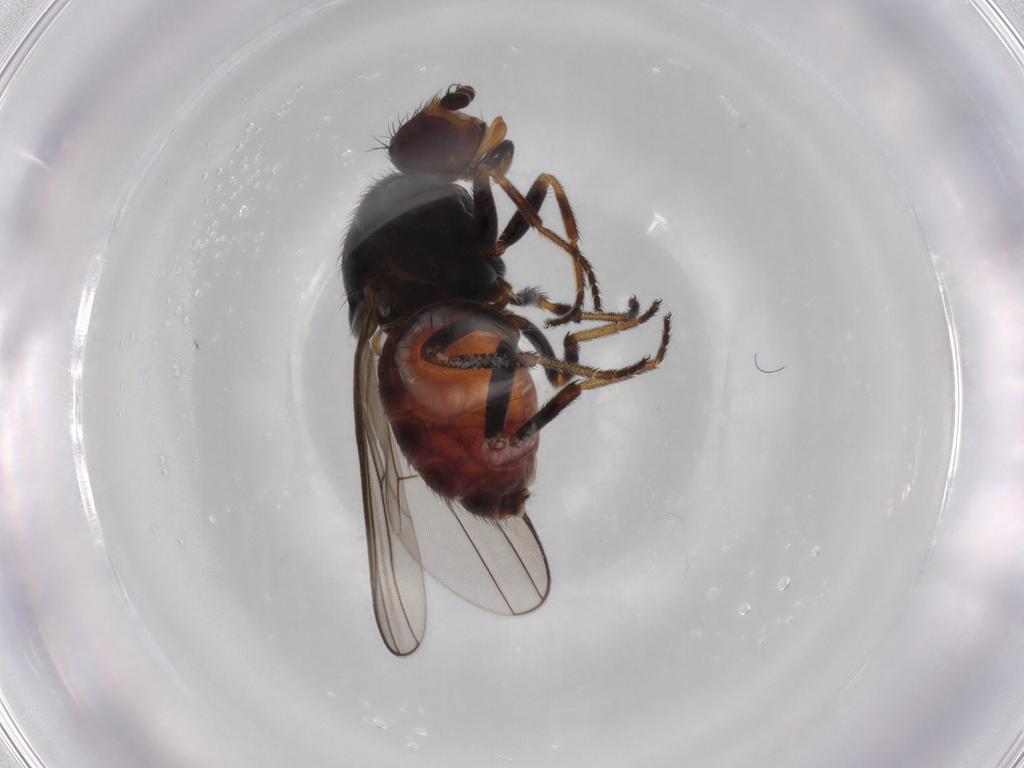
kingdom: Animalia
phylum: Arthropoda
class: Insecta
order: Diptera
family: Chloropidae
